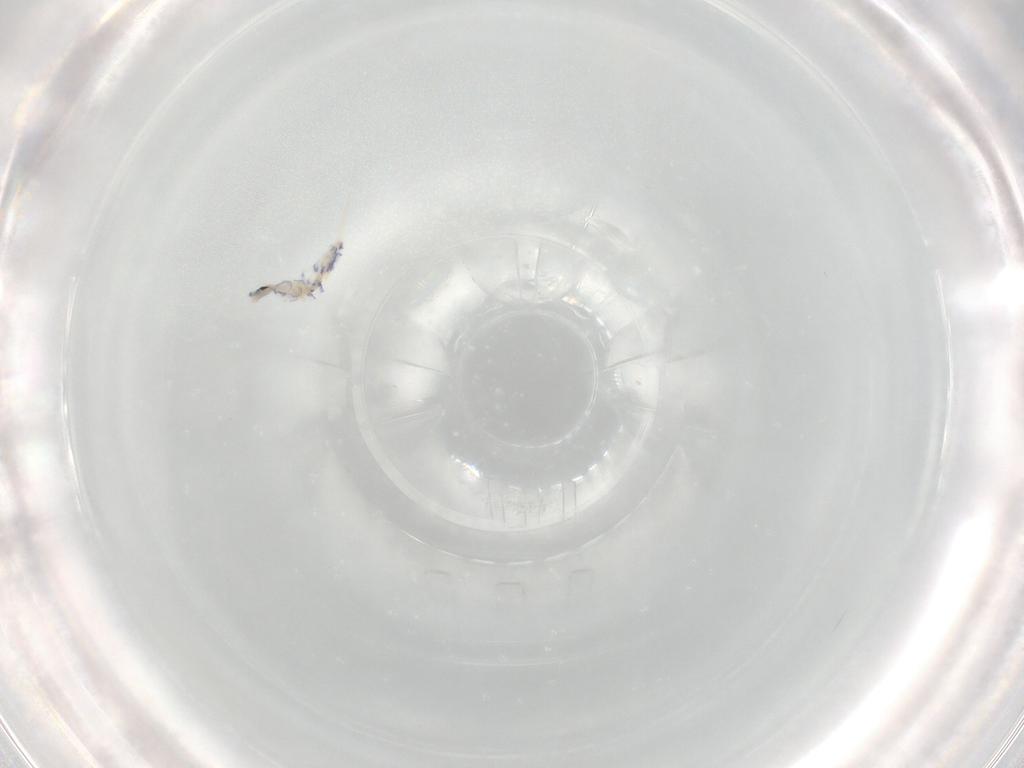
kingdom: Animalia
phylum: Arthropoda
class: Collembola
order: Entomobryomorpha
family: Entomobryidae
